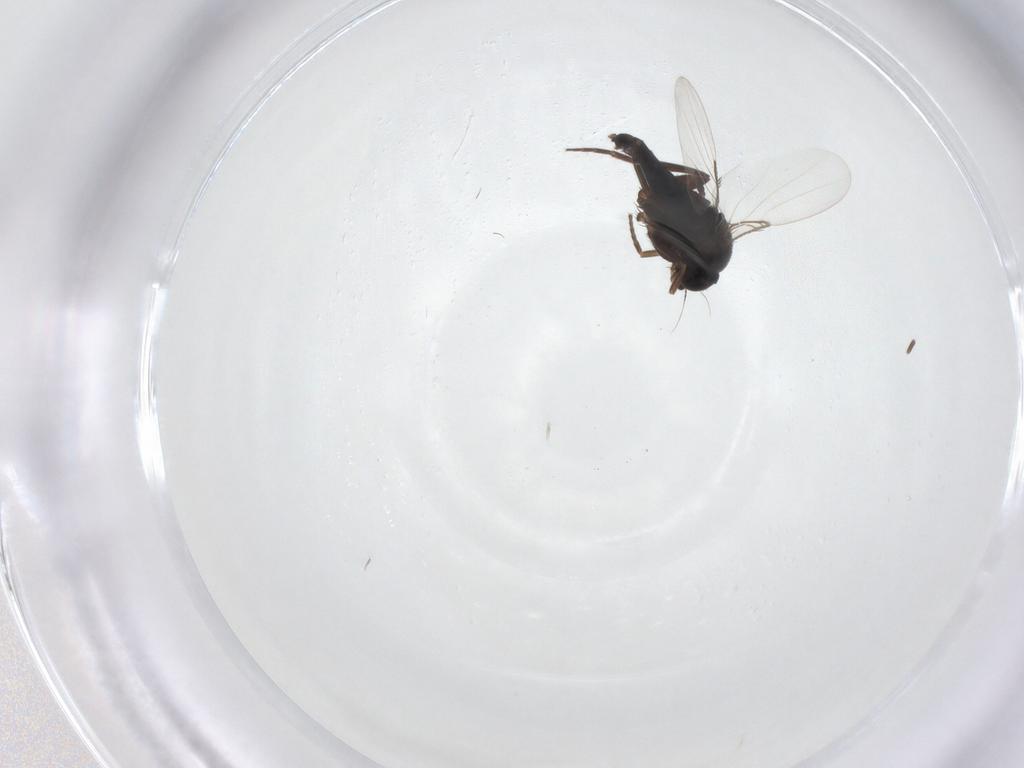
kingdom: Animalia
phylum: Arthropoda
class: Insecta
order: Diptera
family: Phoridae
